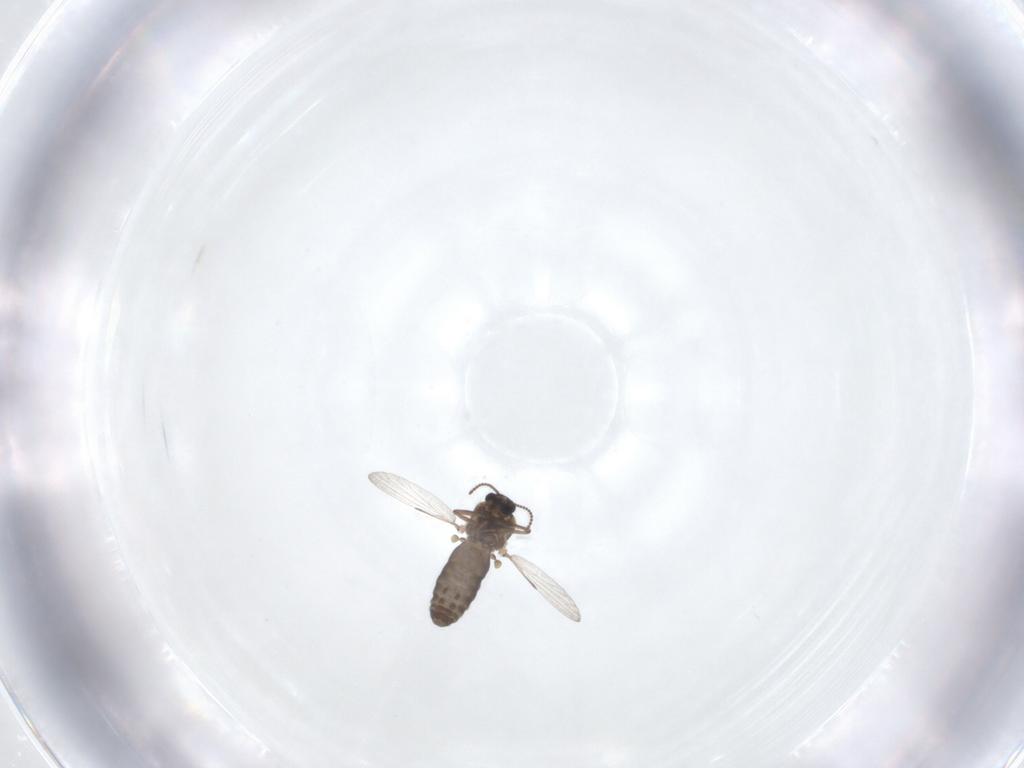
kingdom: Animalia
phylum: Arthropoda
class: Insecta
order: Diptera
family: Ceratopogonidae
